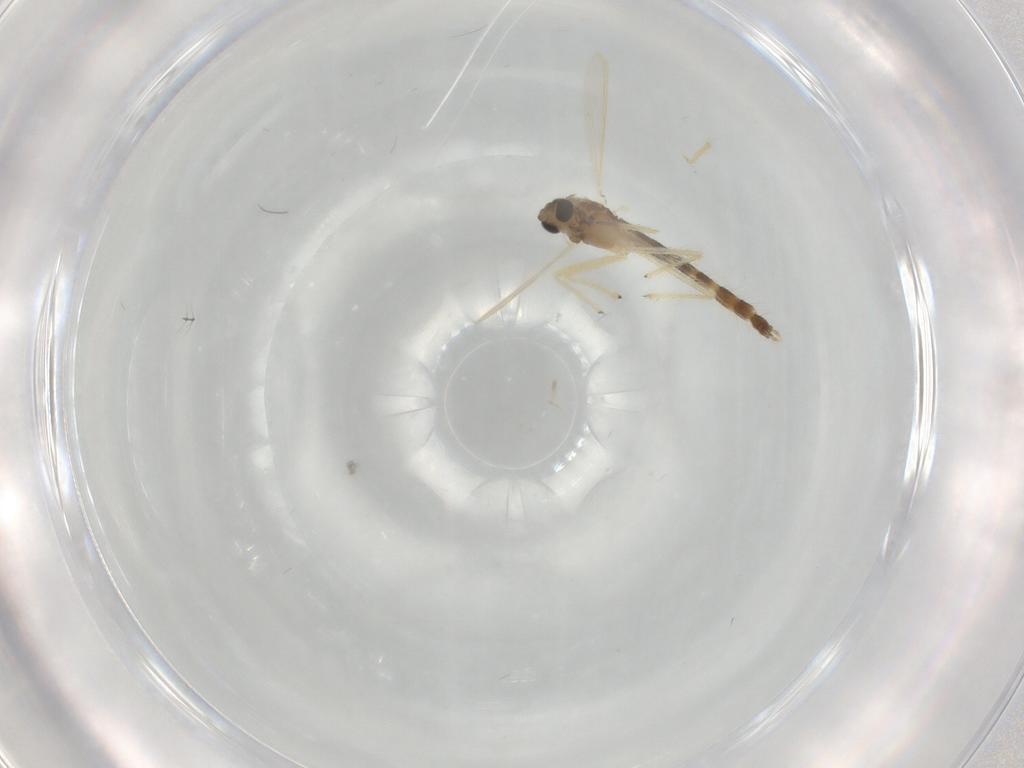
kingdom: Animalia
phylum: Arthropoda
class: Insecta
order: Diptera
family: Chironomidae
